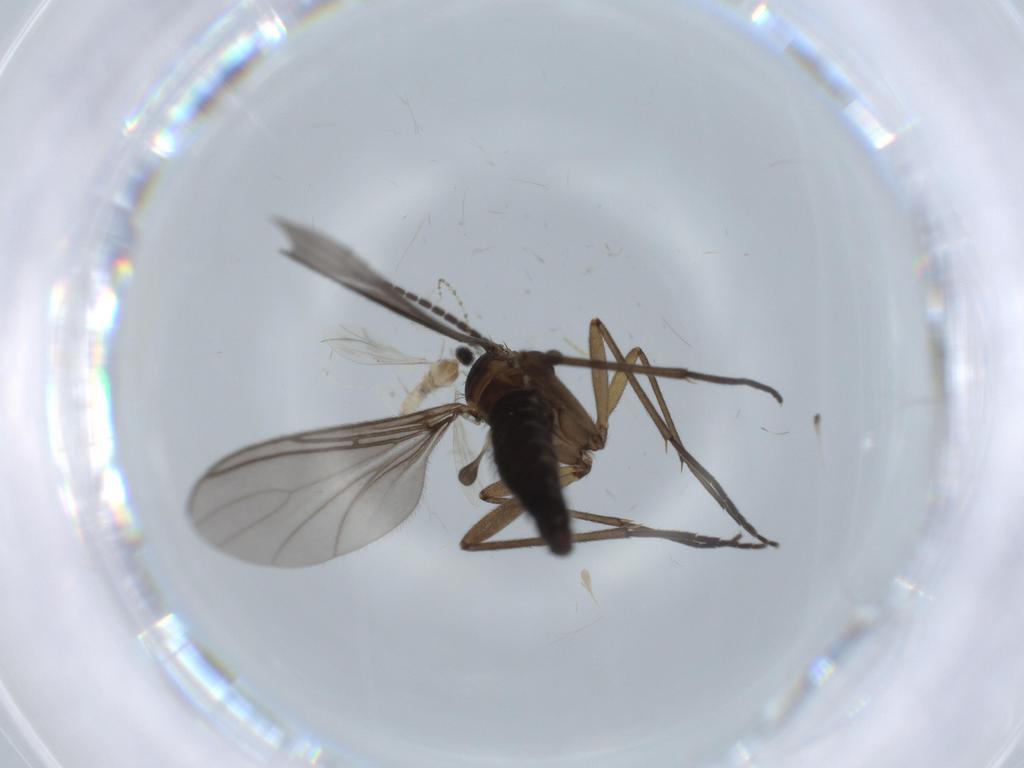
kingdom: Animalia
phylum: Arthropoda
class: Insecta
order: Diptera
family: Sciaridae
